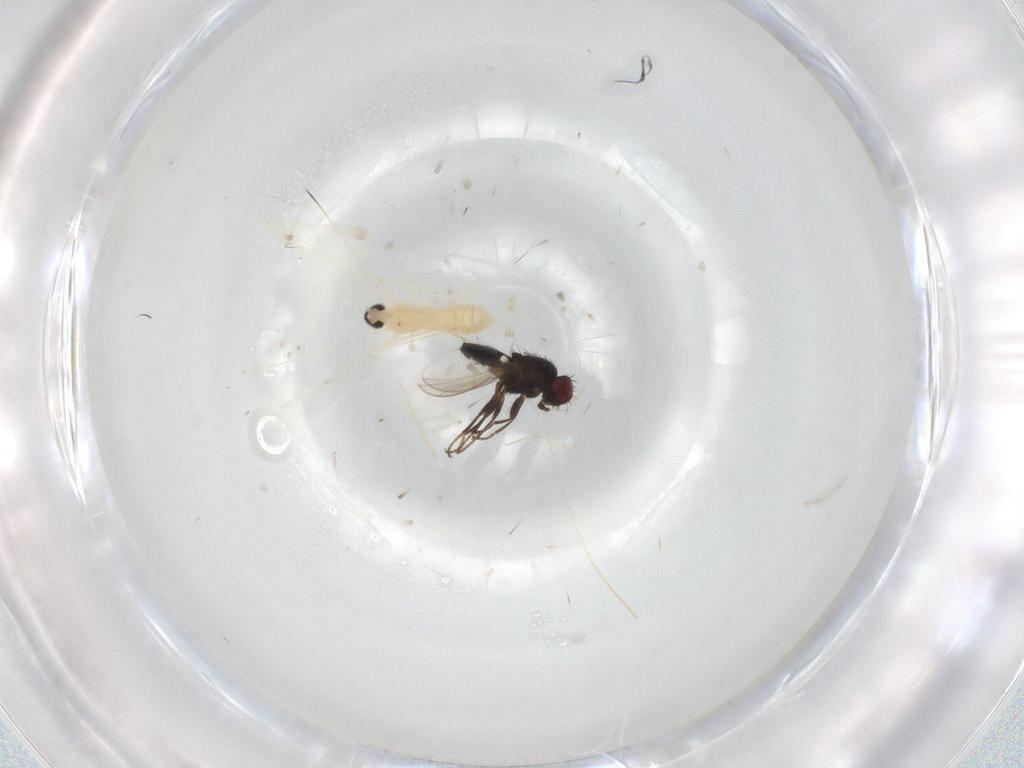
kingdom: Animalia
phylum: Arthropoda
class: Insecta
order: Diptera
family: Cecidomyiidae
